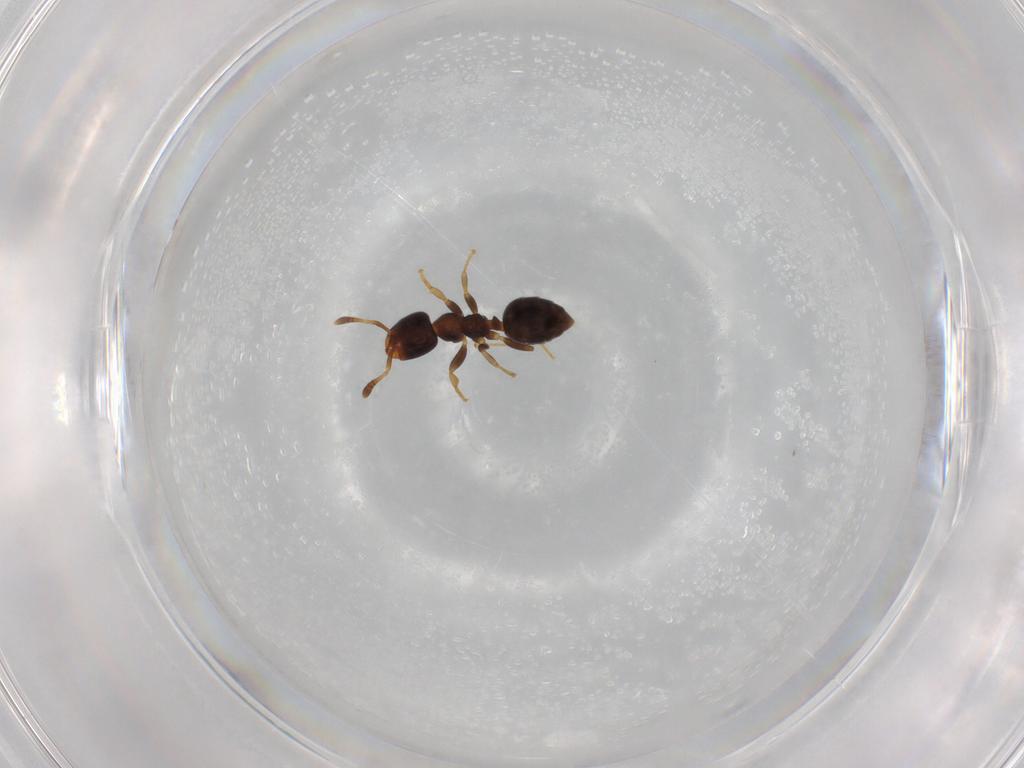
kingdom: Animalia
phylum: Arthropoda
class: Insecta
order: Hymenoptera
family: Formicidae
